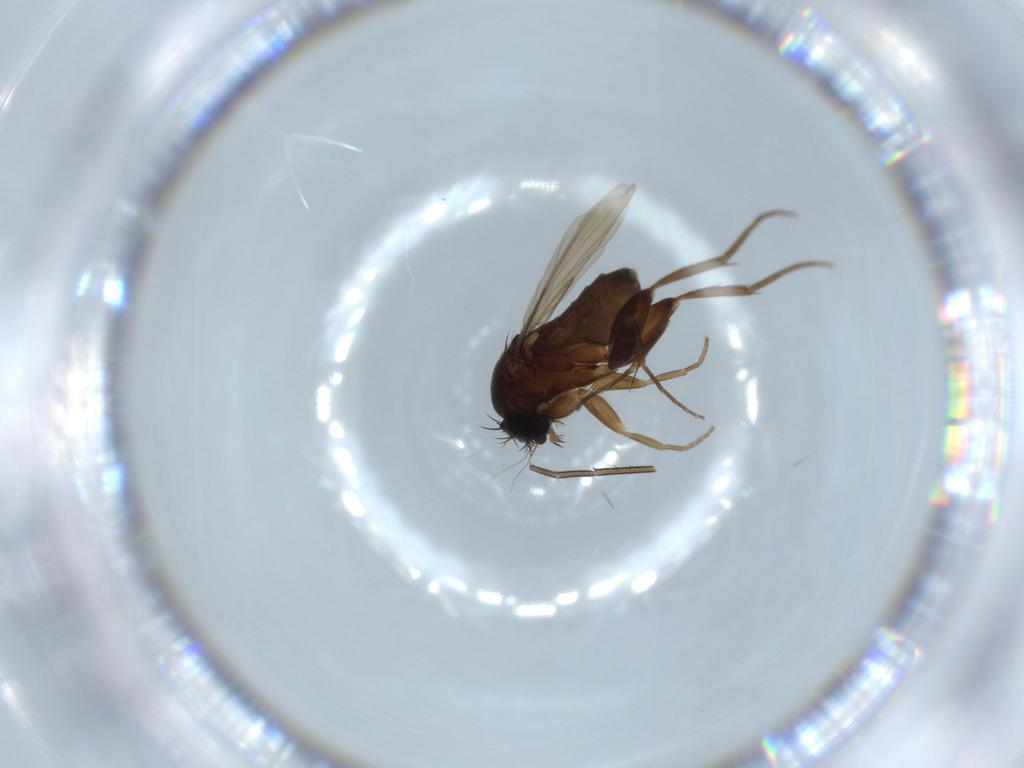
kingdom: Animalia
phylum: Arthropoda
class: Insecta
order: Diptera
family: Phoridae
